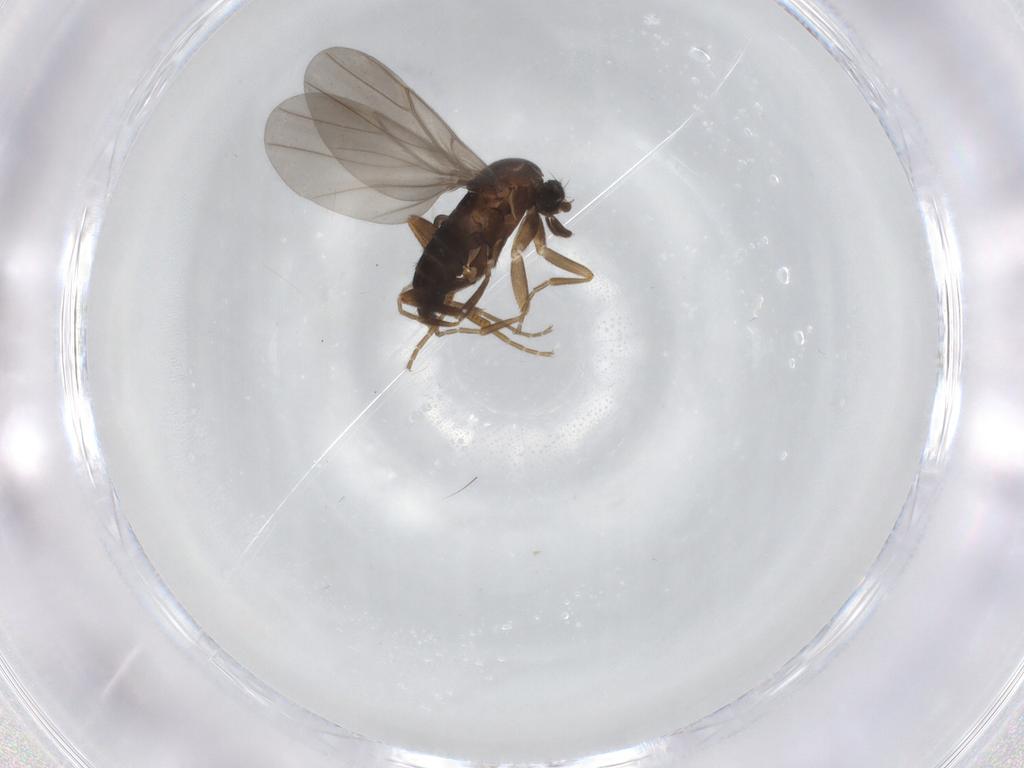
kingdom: Animalia
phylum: Arthropoda
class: Insecta
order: Diptera
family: Phoridae
